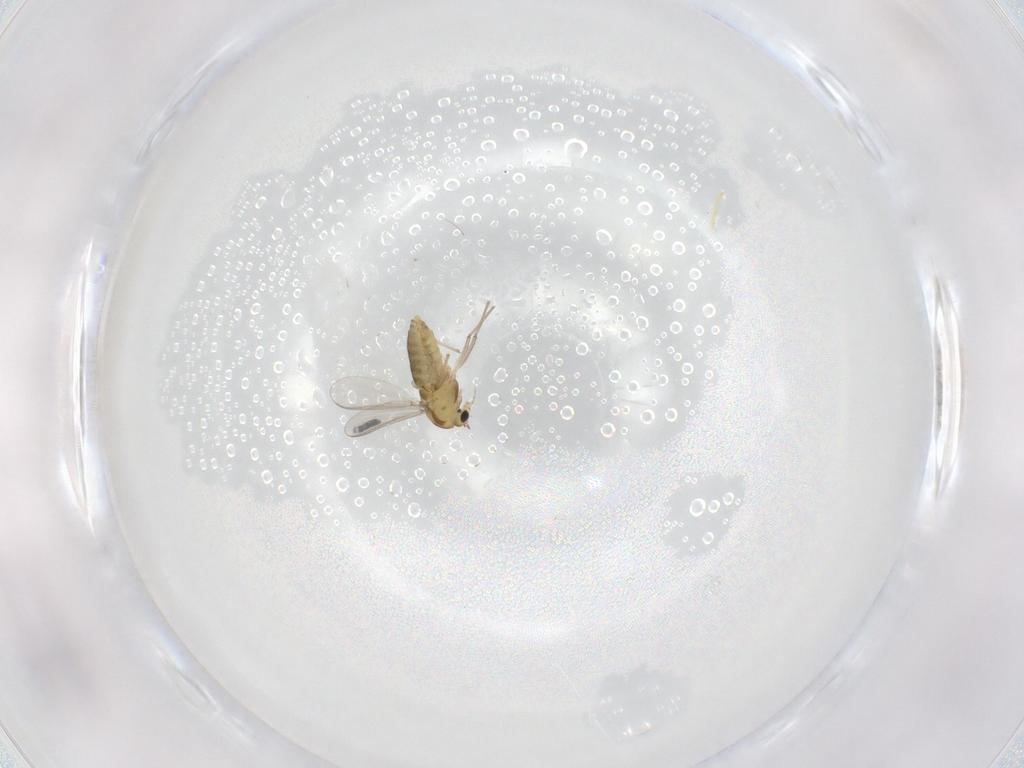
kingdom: Animalia
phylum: Arthropoda
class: Insecta
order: Diptera
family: Chironomidae
